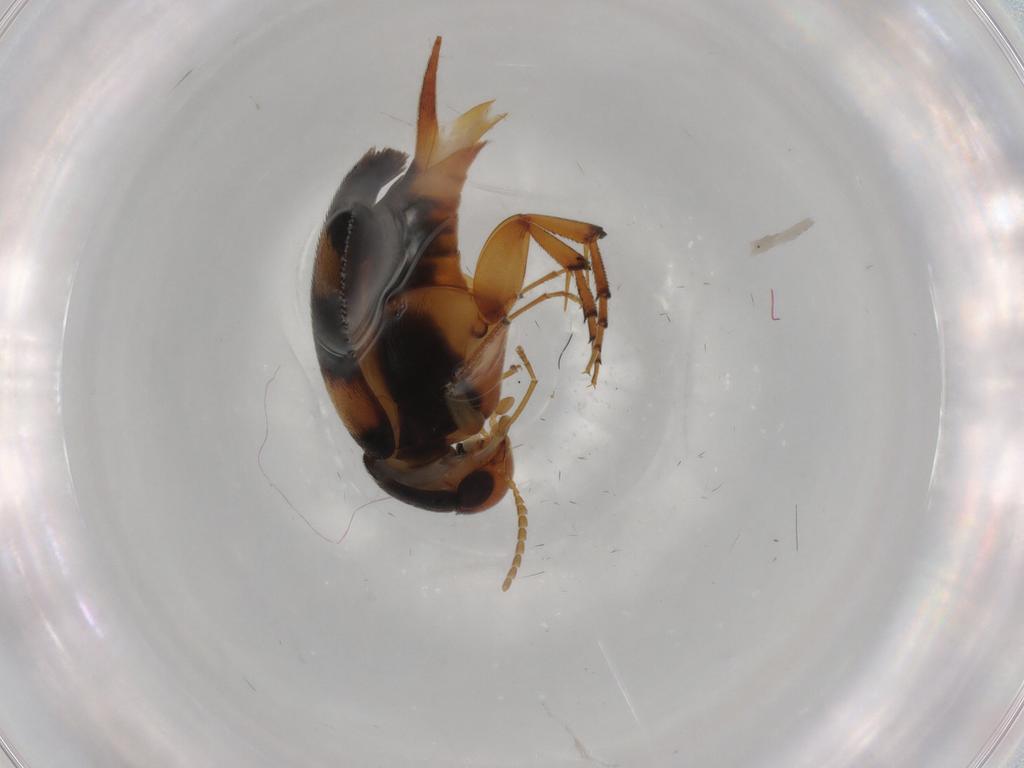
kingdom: Animalia
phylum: Arthropoda
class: Insecta
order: Coleoptera
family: Mordellidae
